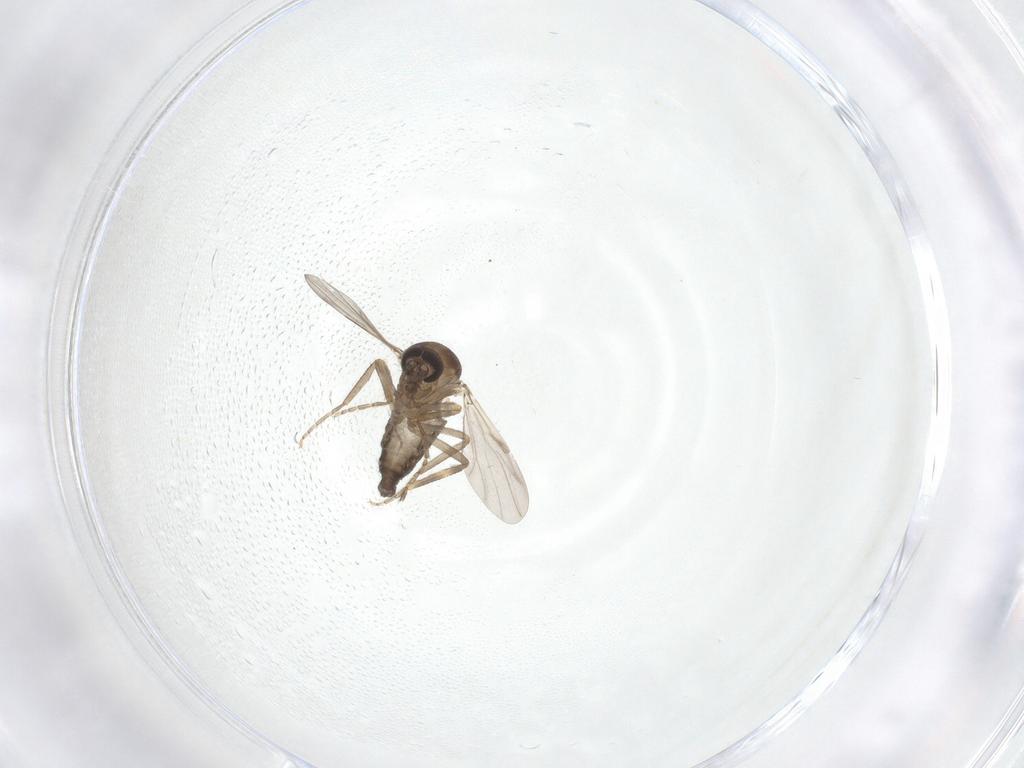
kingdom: Animalia
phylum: Arthropoda
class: Insecta
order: Diptera
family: Ceratopogonidae
